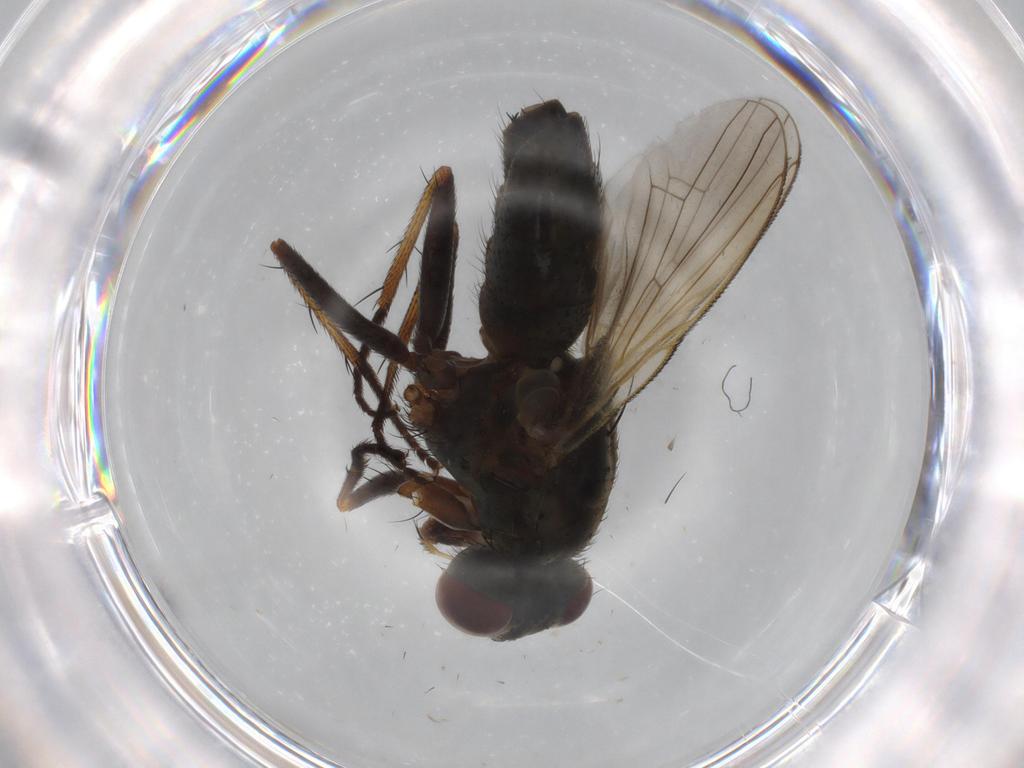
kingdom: Animalia
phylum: Arthropoda
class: Insecta
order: Diptera
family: Muscidae
